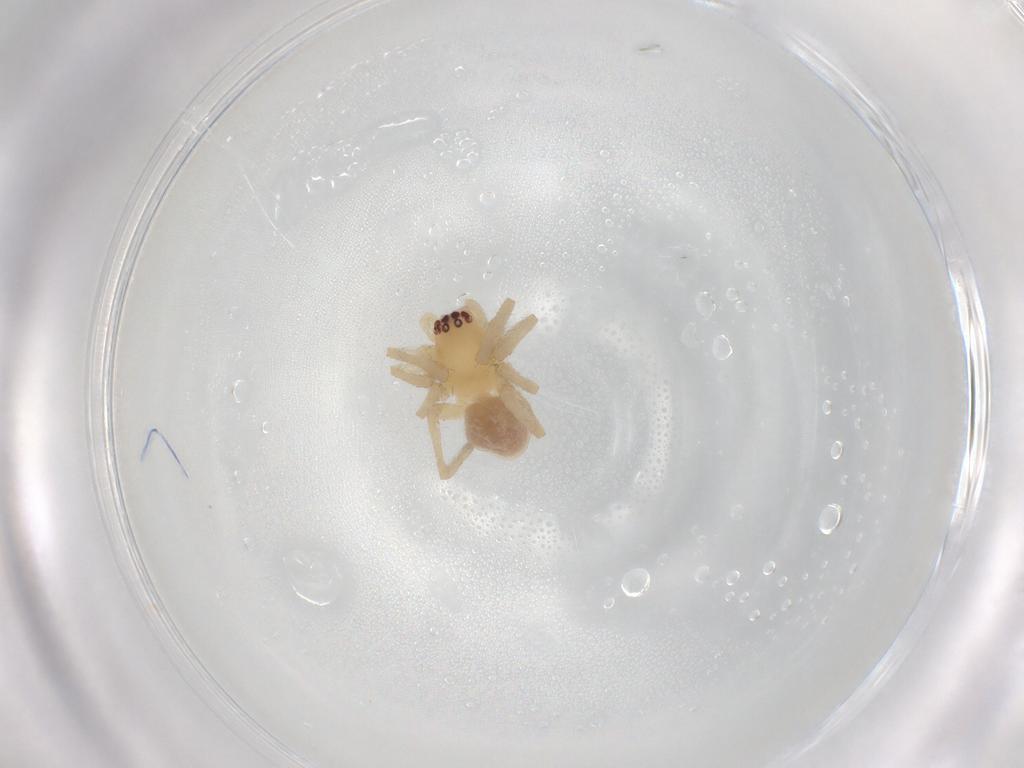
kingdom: Animalia
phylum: Arthropoda
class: Arachnida
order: Araneae
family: Cheiracanthiidae
